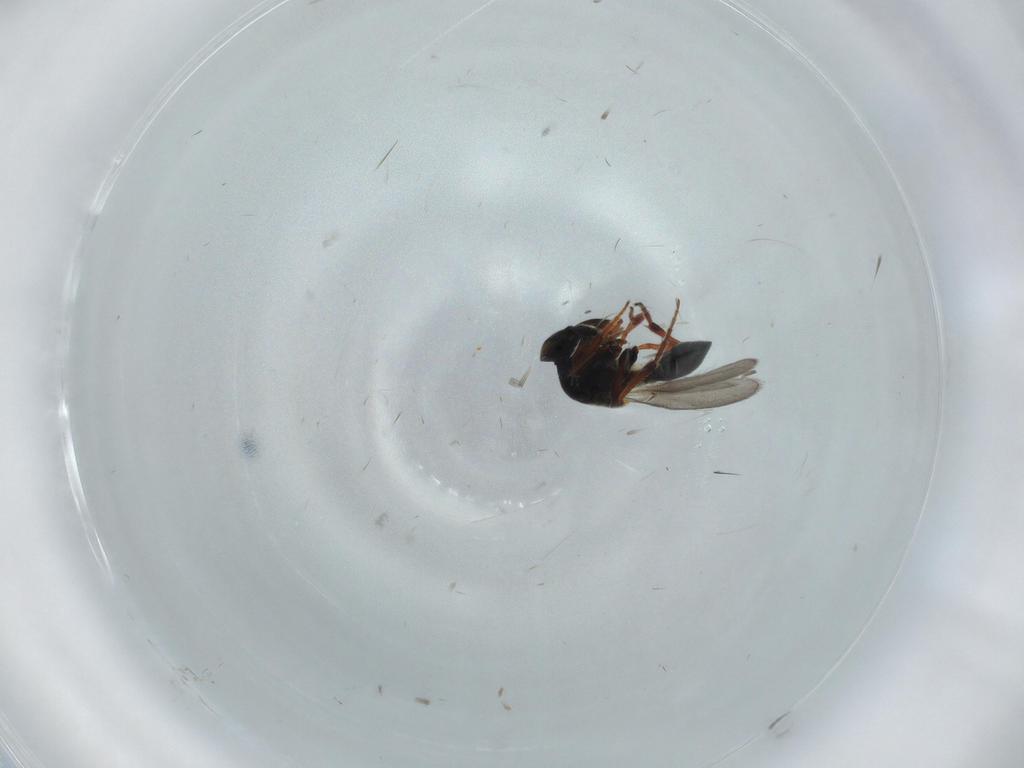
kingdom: Animalia
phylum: Arthropoda
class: Insecta
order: Hymenoptera
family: Platygastridae
